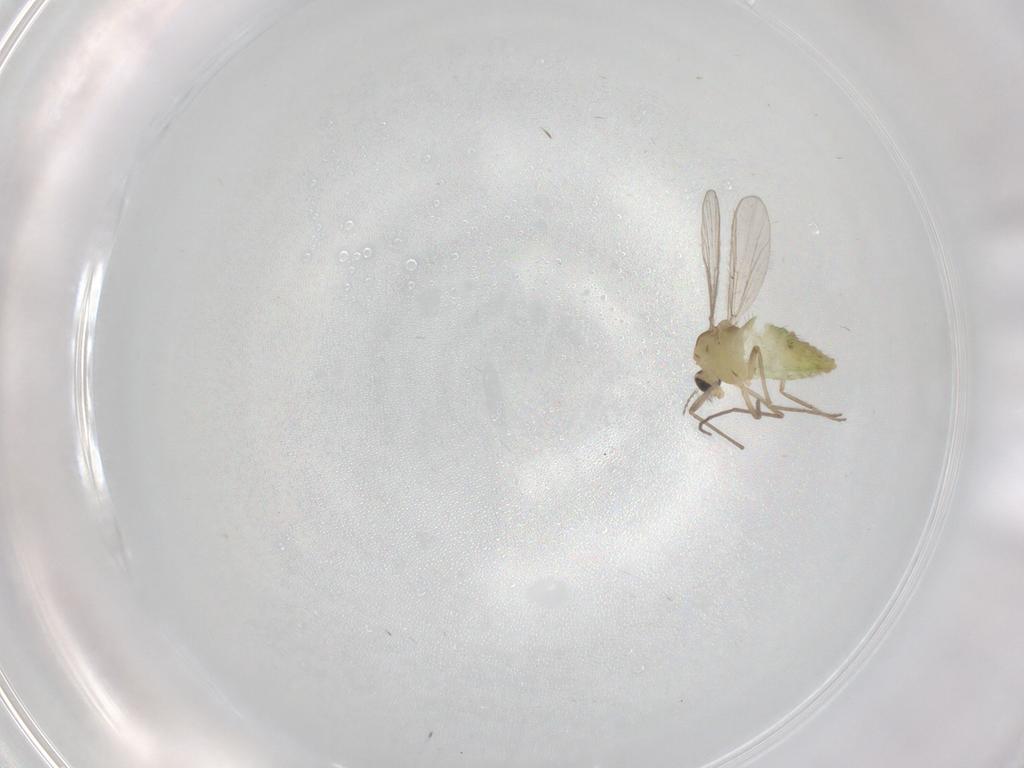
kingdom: Animalia
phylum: Arthropoda
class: Insecta
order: Diptera
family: Chironomidae
